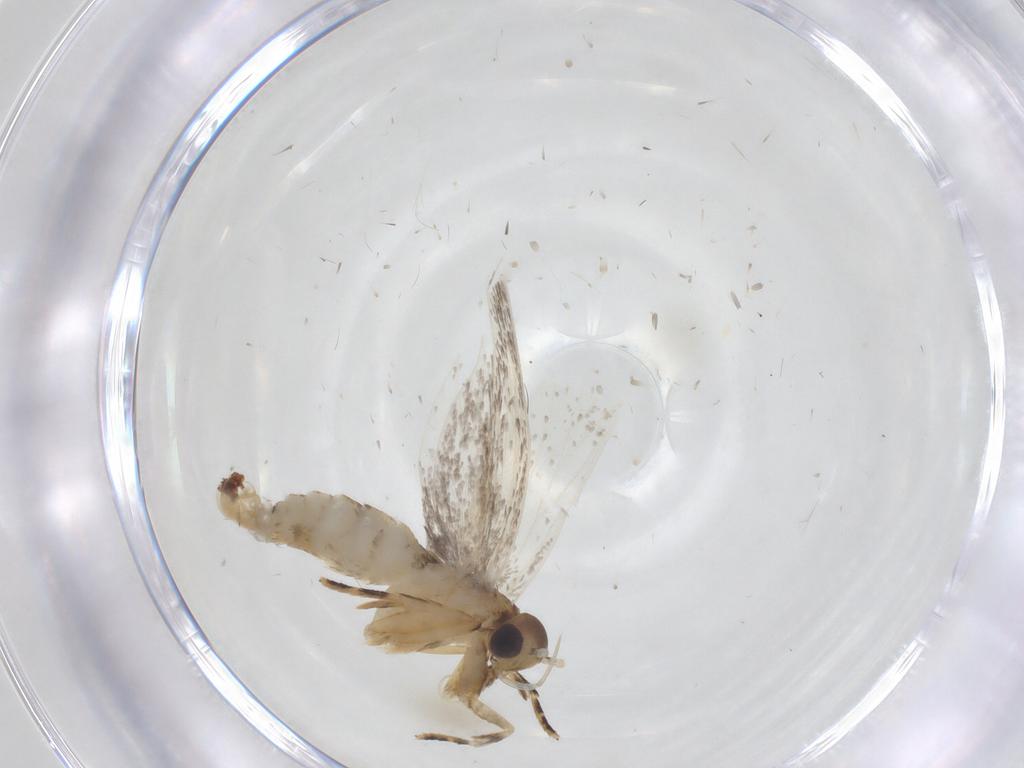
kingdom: Animalia
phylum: Arthropoda
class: Insecta
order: Lepidoptera
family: Oecophoridae
